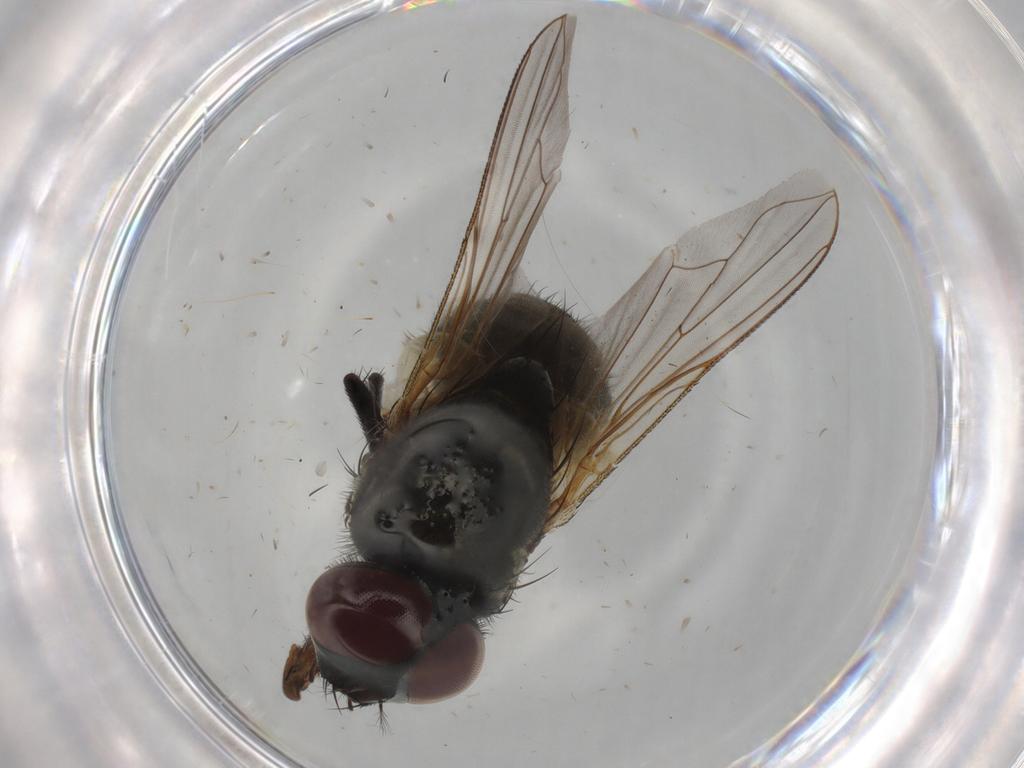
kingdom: Animalia
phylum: Arthropoda
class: Insecta
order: Diptera
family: Muscidae
